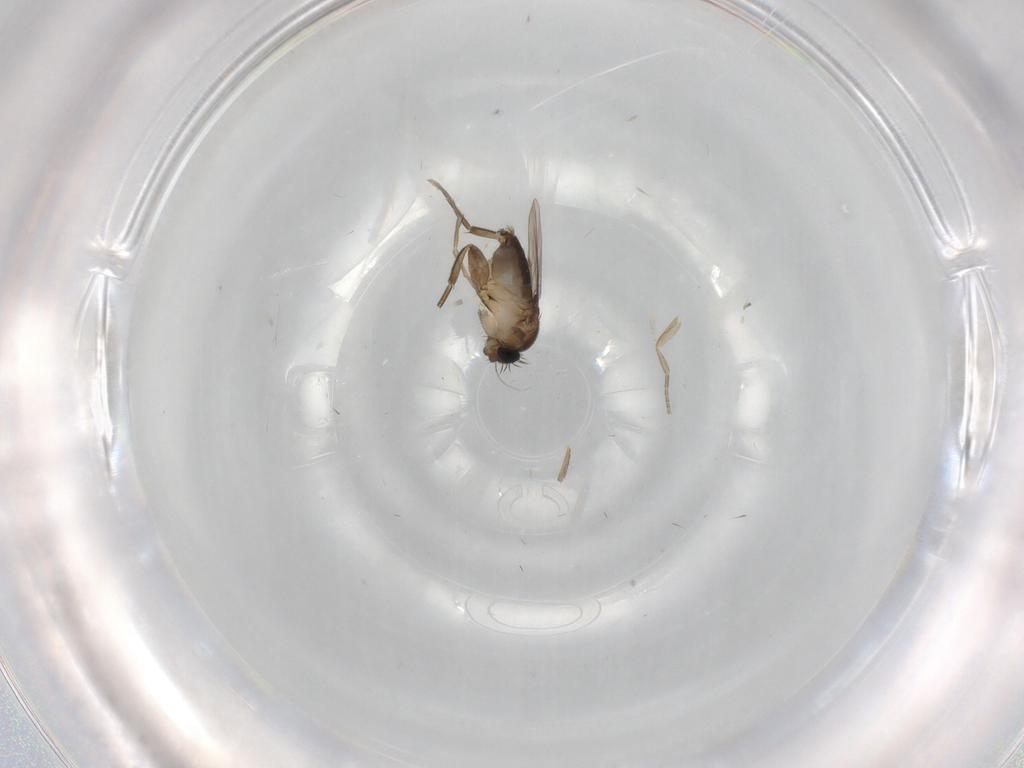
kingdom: Animalia
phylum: Arthropoda
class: Insecta
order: Diptera
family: Phoridae
